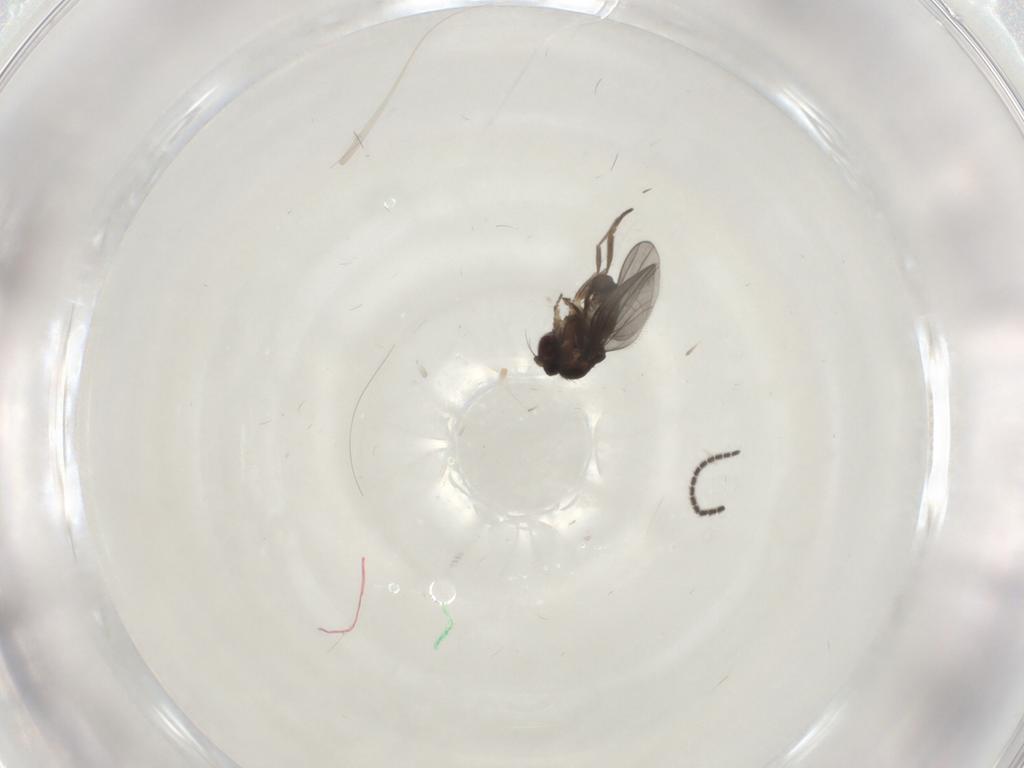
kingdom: Animalia
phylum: Arthropoda
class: Insecta
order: Diptera
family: Sciaridae
